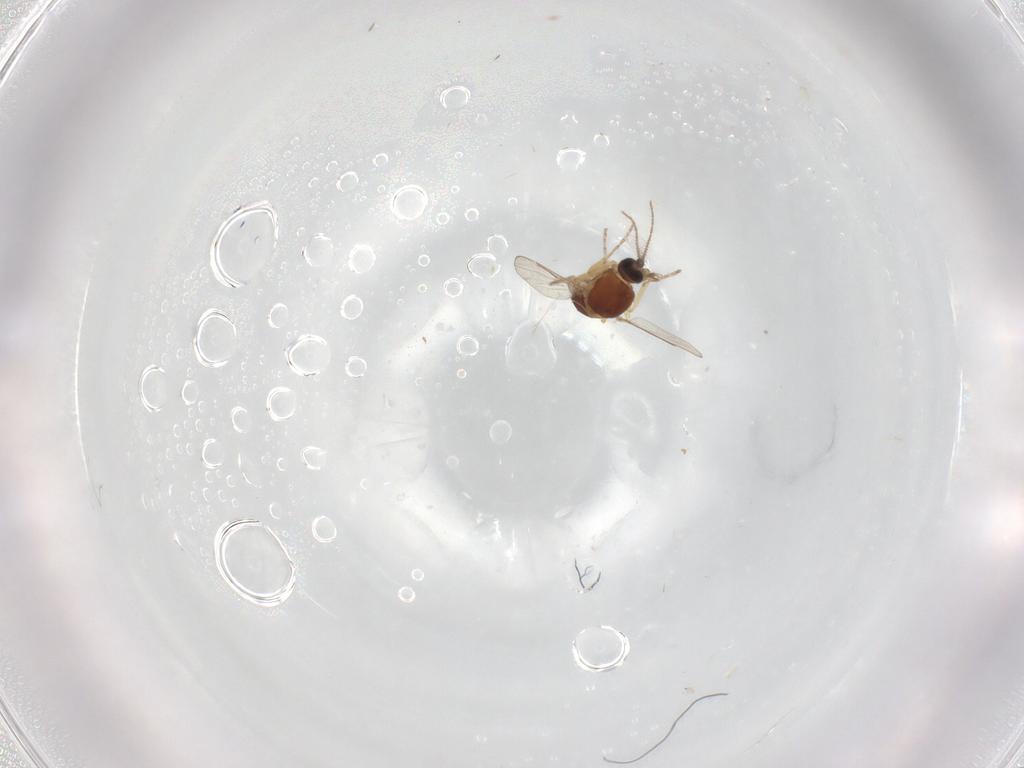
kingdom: Animalia
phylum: Arthropoda
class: Insecta
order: Diptera
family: Ceratopogonidae
